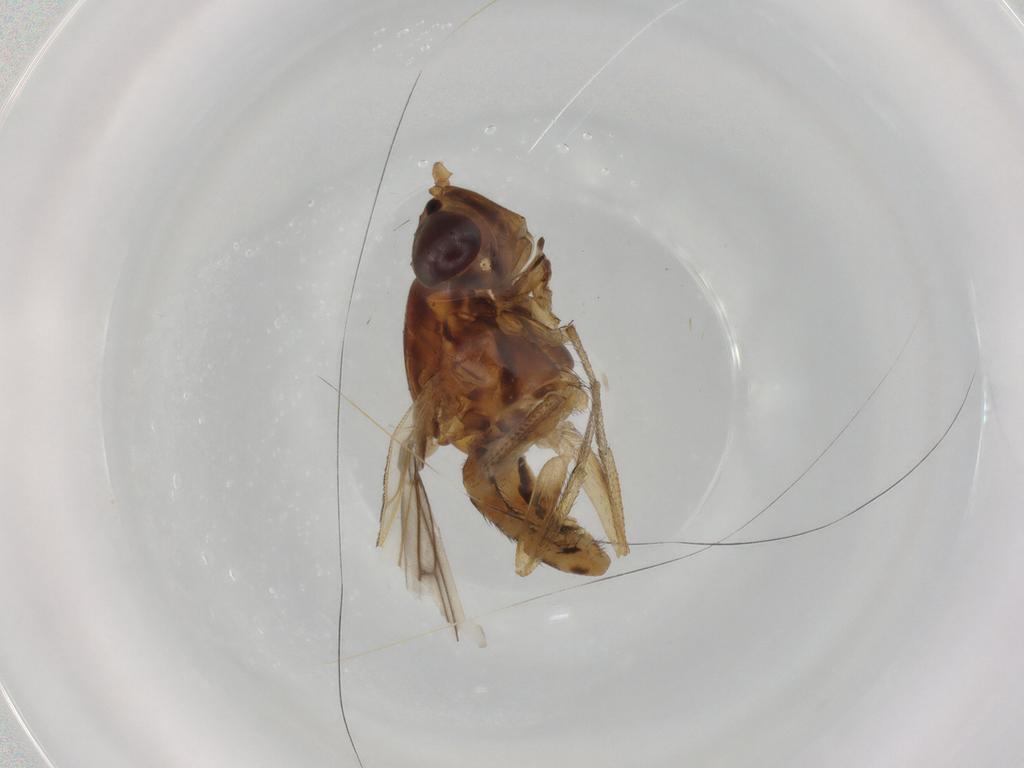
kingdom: Animalia
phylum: Arthropoda
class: Insecta
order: Diptera
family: Lauxaniidae
